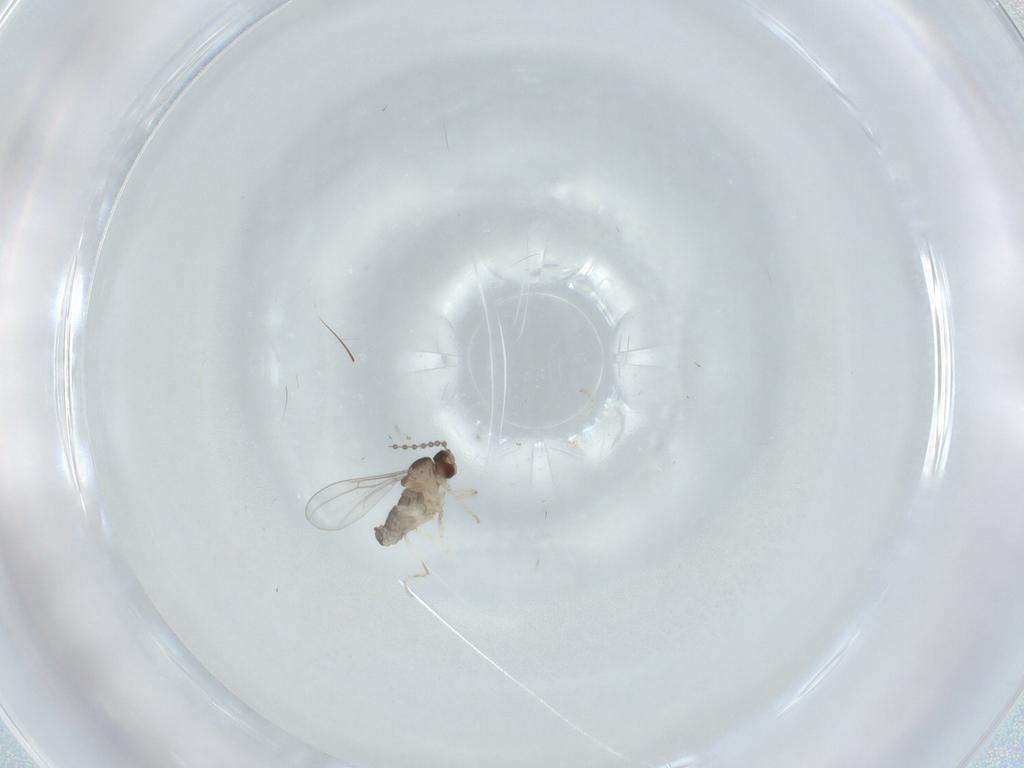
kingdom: Animalia
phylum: Arthropoda
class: Insecta
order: Diptera
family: Cecidomyiidae
